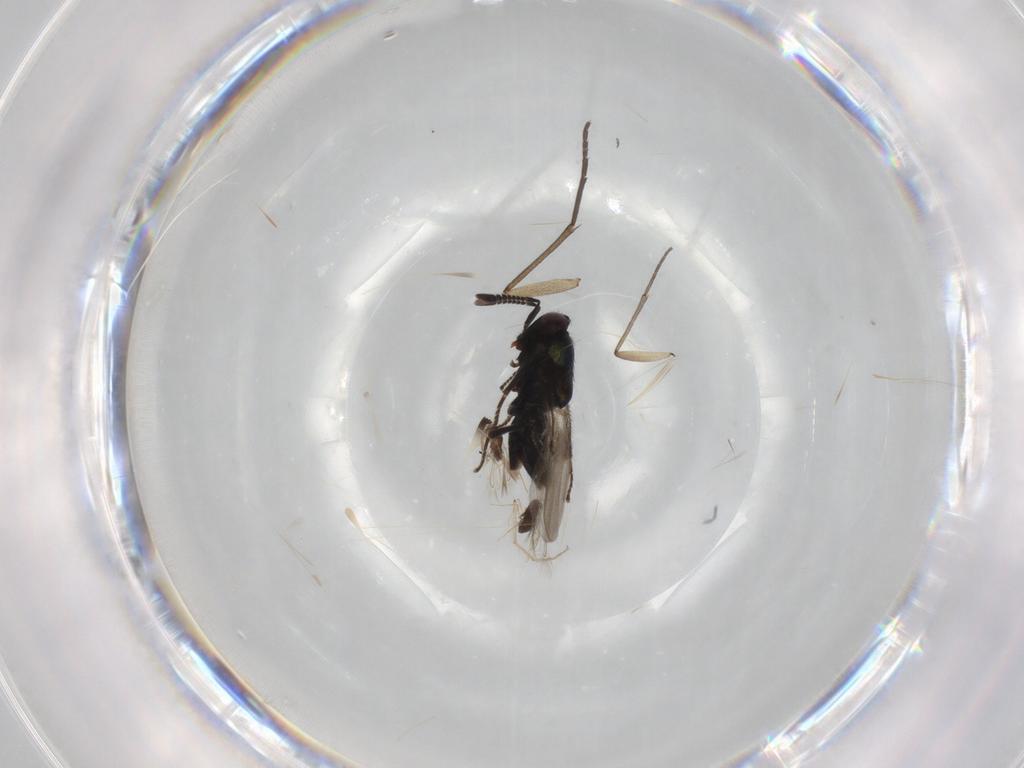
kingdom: Animalia
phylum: Arthropoda
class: Insecta
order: Hymenoptera
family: Encyrtidae
